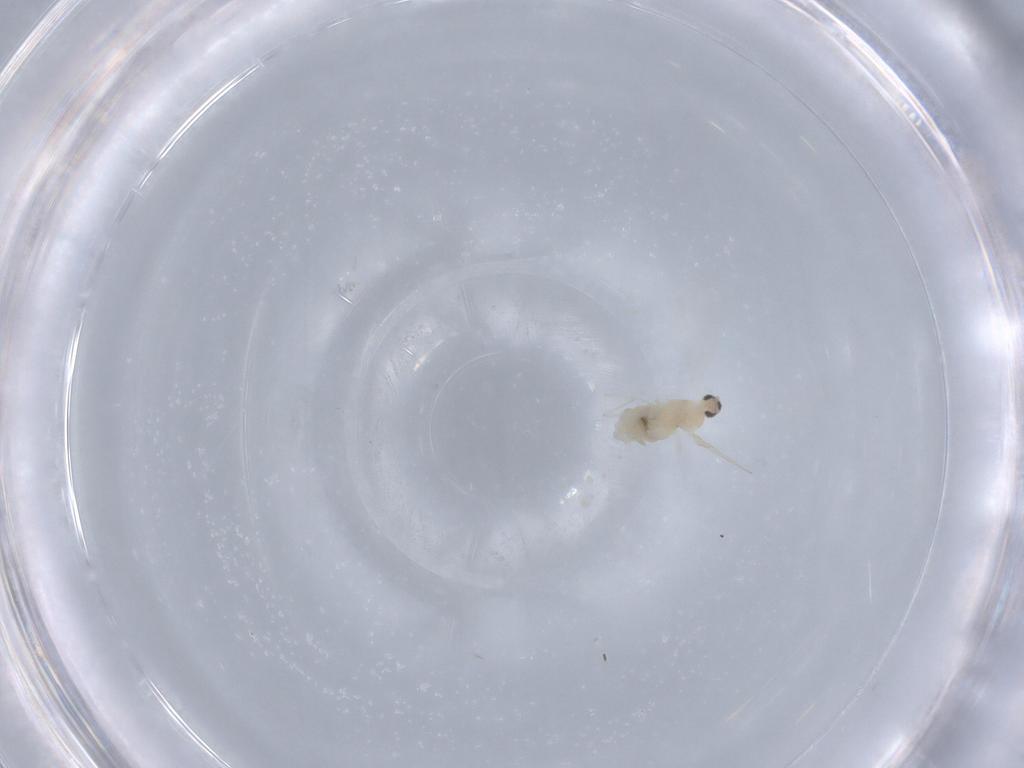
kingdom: Animalia
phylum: Arthropoda
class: Insecta
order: Diptera
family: Cecidomyiidae
